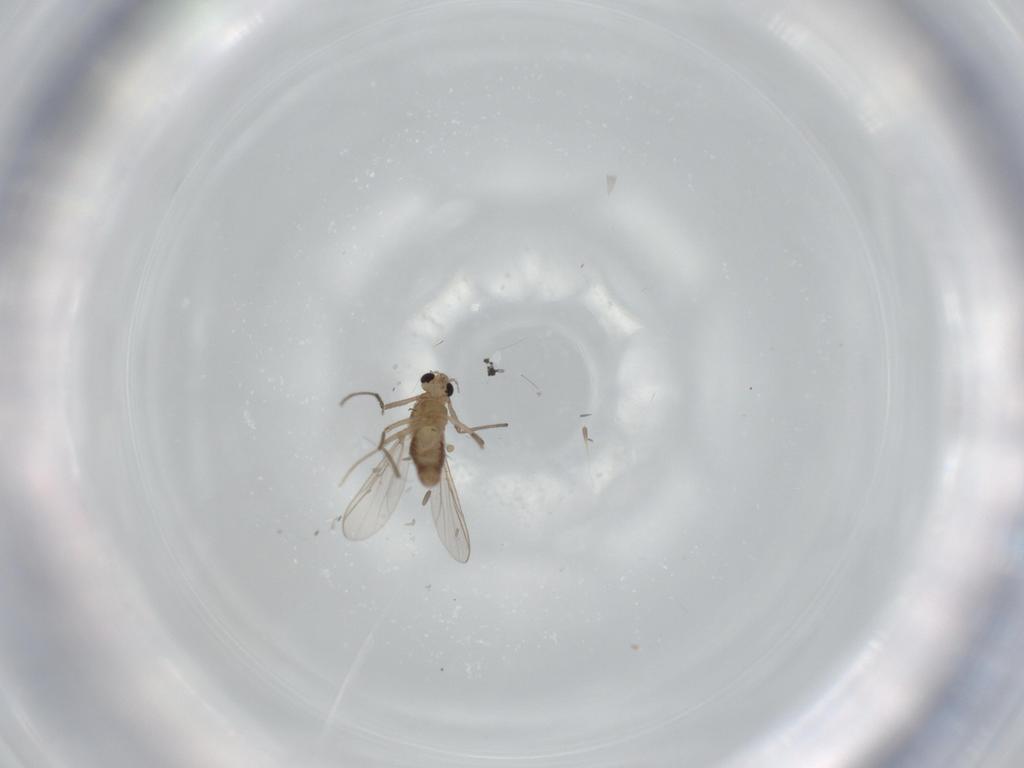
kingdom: Animalia
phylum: Arthropoda
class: Insecta
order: Diptera
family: Chironomidae
